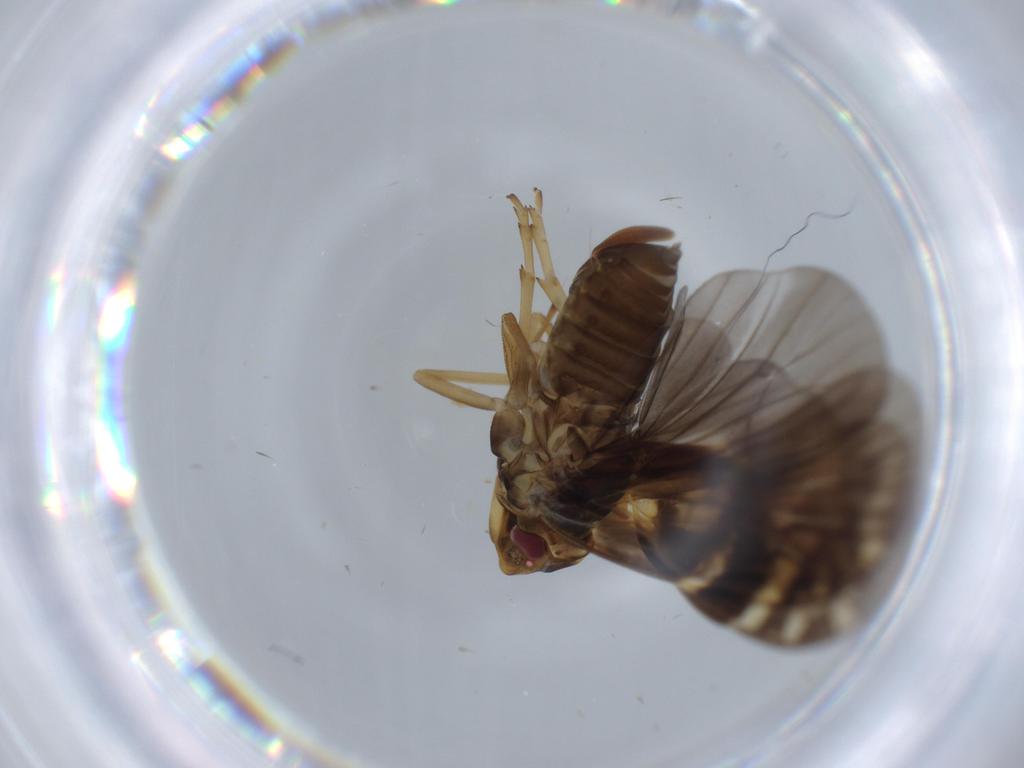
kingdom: Animalia
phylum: Arthropoda
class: Insecta
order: Hemiptera
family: Cixiidae
